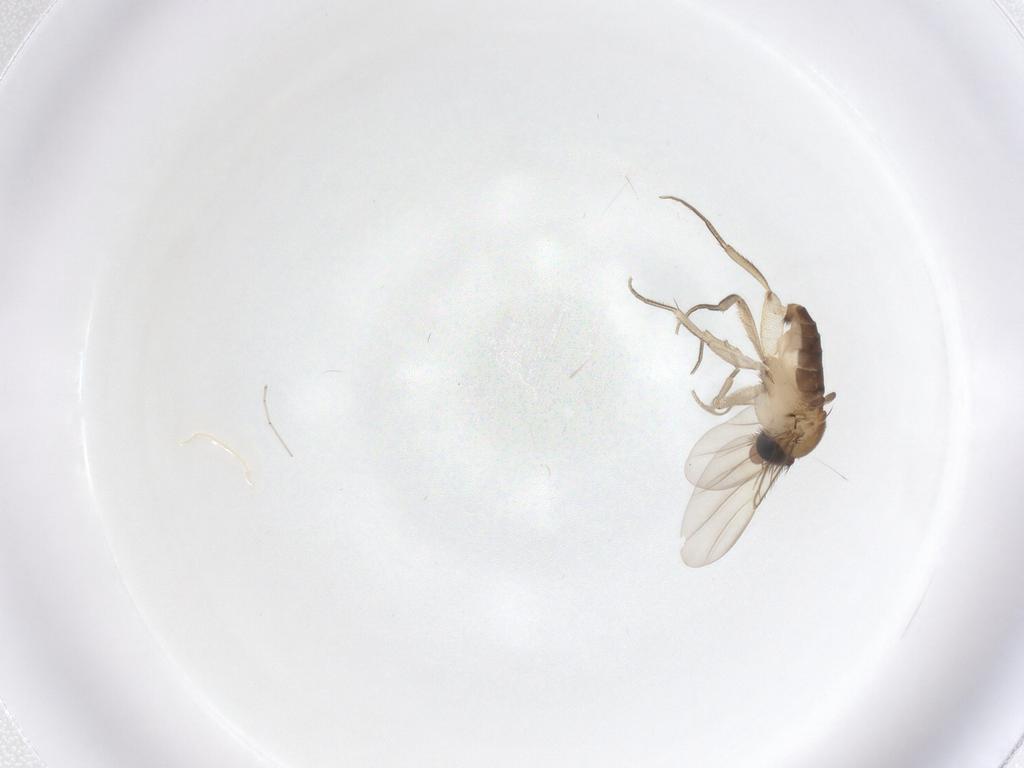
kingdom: Animalia
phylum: Arthropoda
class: Insecta
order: Diptera
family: Phoridae
